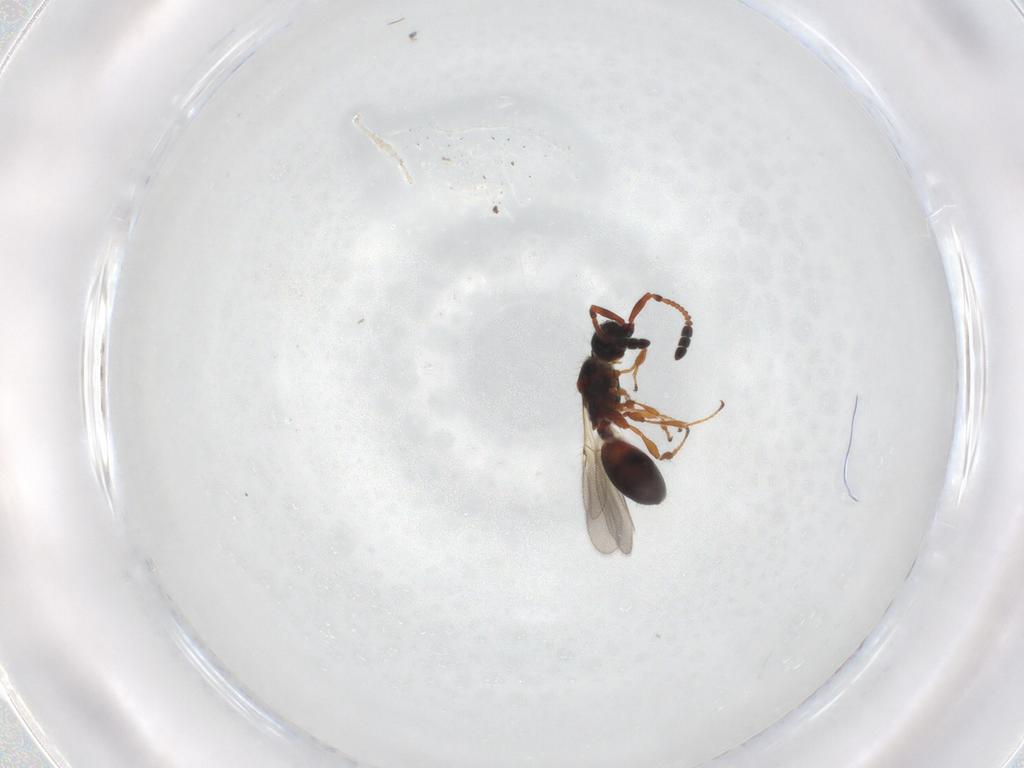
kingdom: Animalia
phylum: Arthropoda
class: Insecta
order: Hymenoptera
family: Diapriidae
